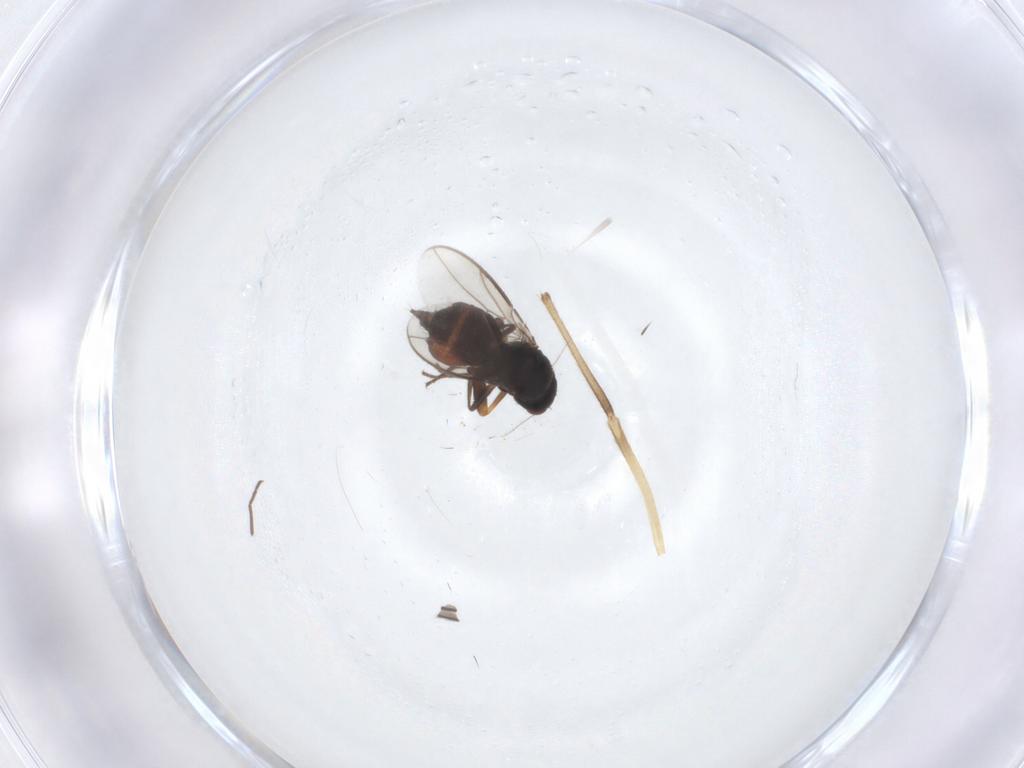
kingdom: Animalia
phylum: Arthropoda
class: Insecta
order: Diptera
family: Sphaeroceridae
